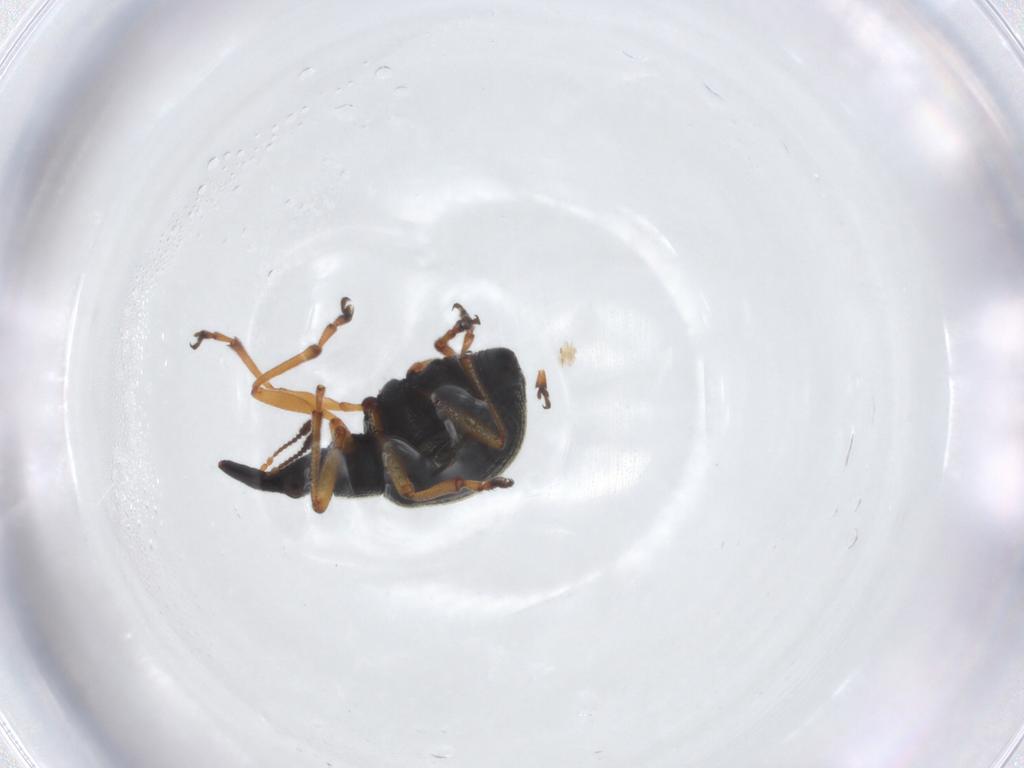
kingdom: Animalia
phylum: Arthropoda
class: Insecta
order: Coleoptera
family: Brentidae
